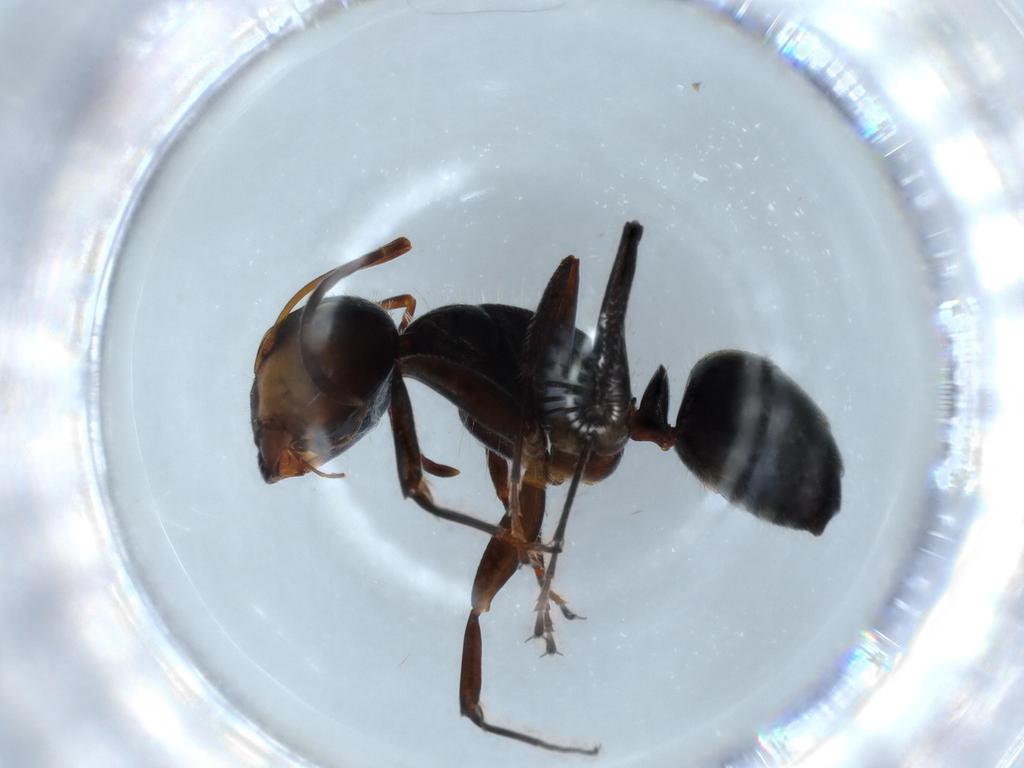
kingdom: Animalia
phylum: Arthropoda
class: Insecta
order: Hymenoptera
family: Formicidae
